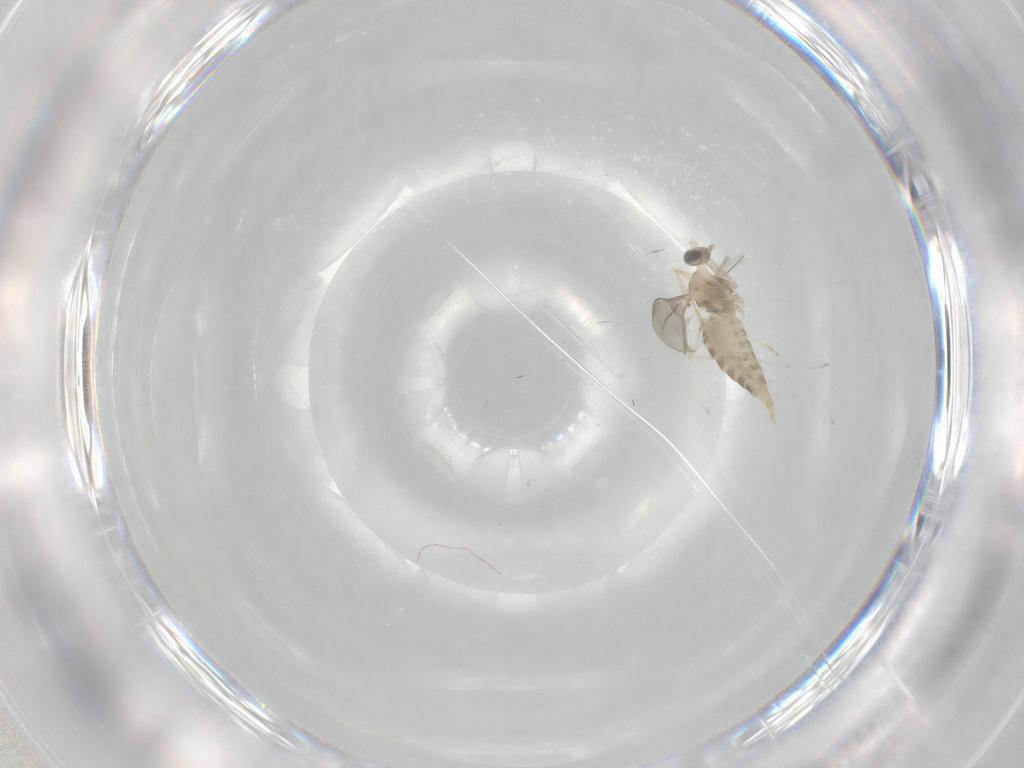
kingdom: Animalia
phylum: Arthropoda
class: Insecta
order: Diptera
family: Cecidomyiidae
